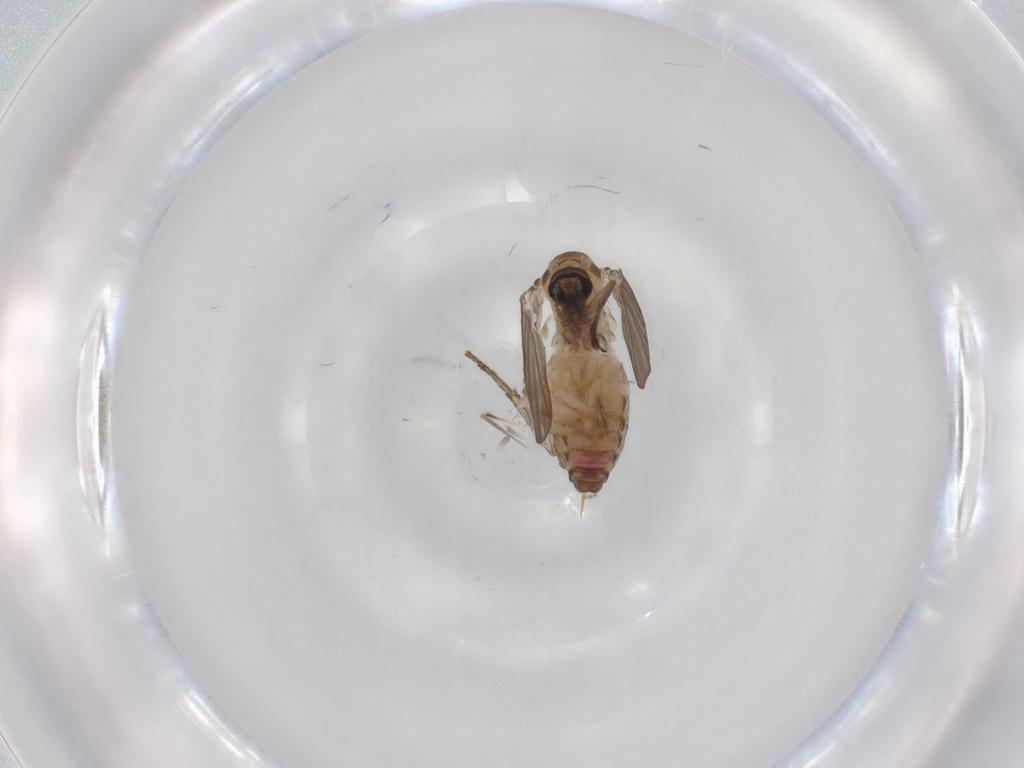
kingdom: Animalia
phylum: Arthropoda
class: Insecta
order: Diptera
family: Psychodidae
